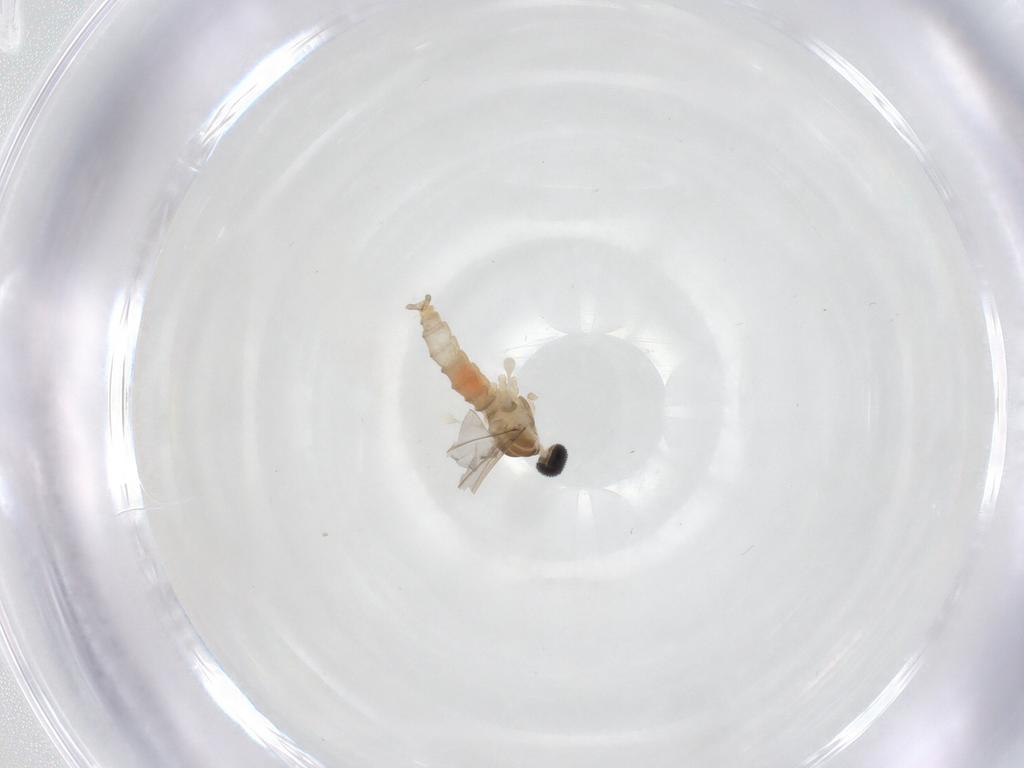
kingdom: Animalia
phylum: Arthropoda
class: Insecta
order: Diptera
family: Cecidomyiidae
